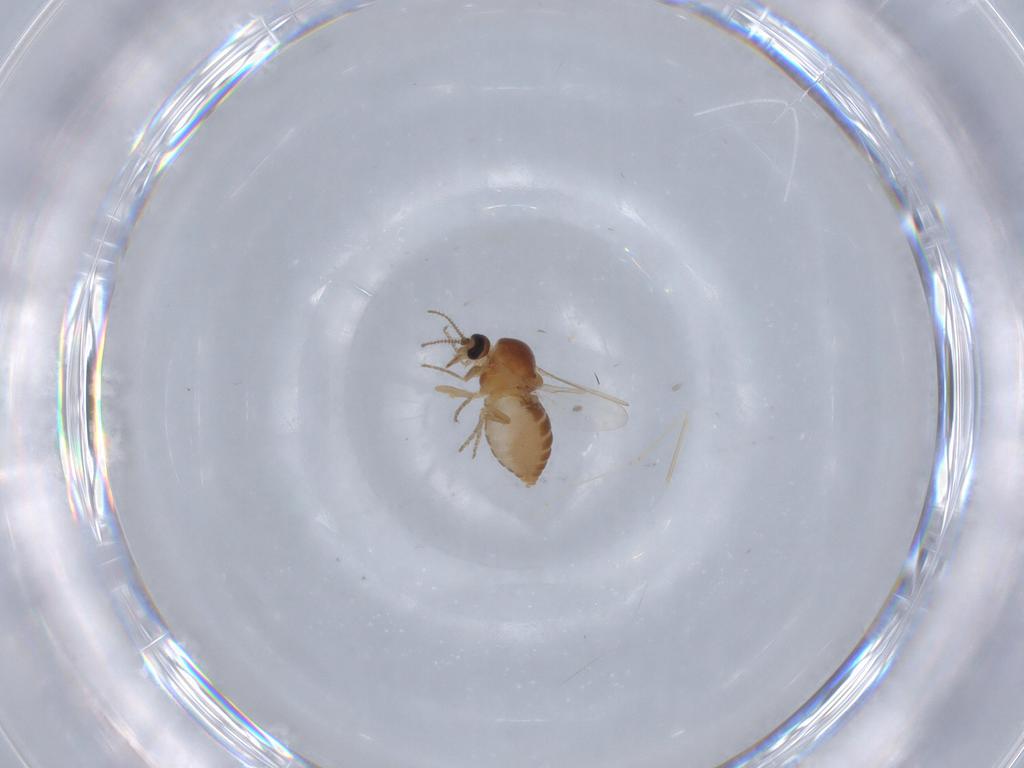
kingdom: Animalia
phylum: Arthropoda
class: Insecta
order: Diptera
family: Ceratopogonidae
